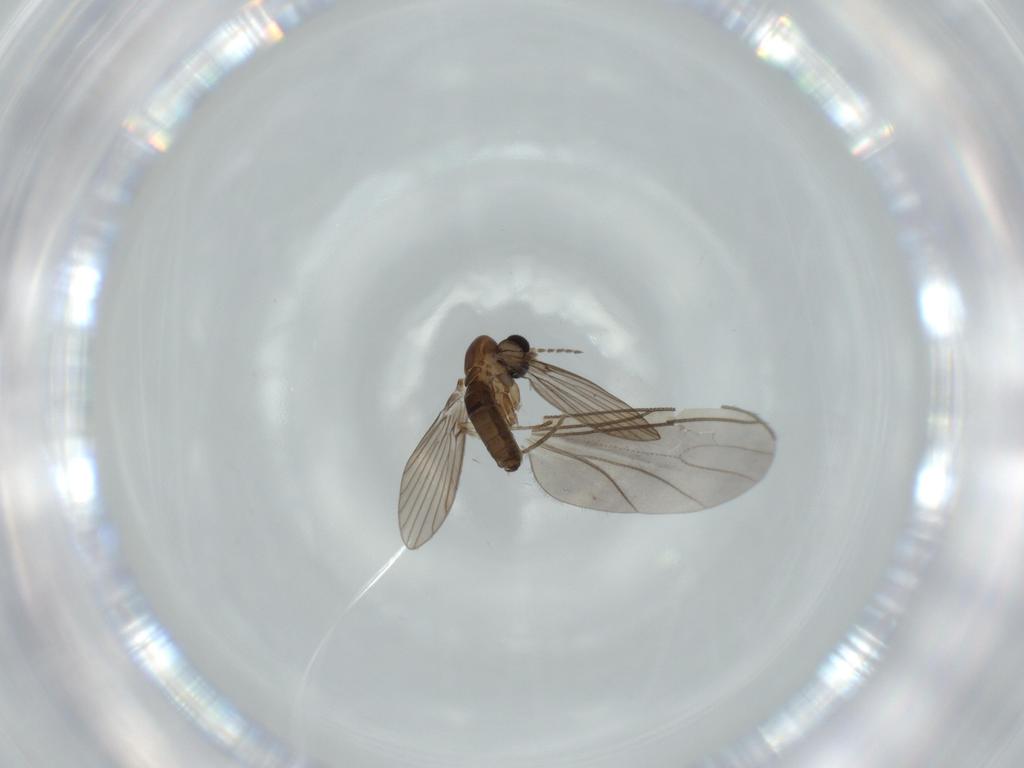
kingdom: Animalia
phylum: Arthropoda
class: Insecta
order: Diptera
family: Psychodidae
